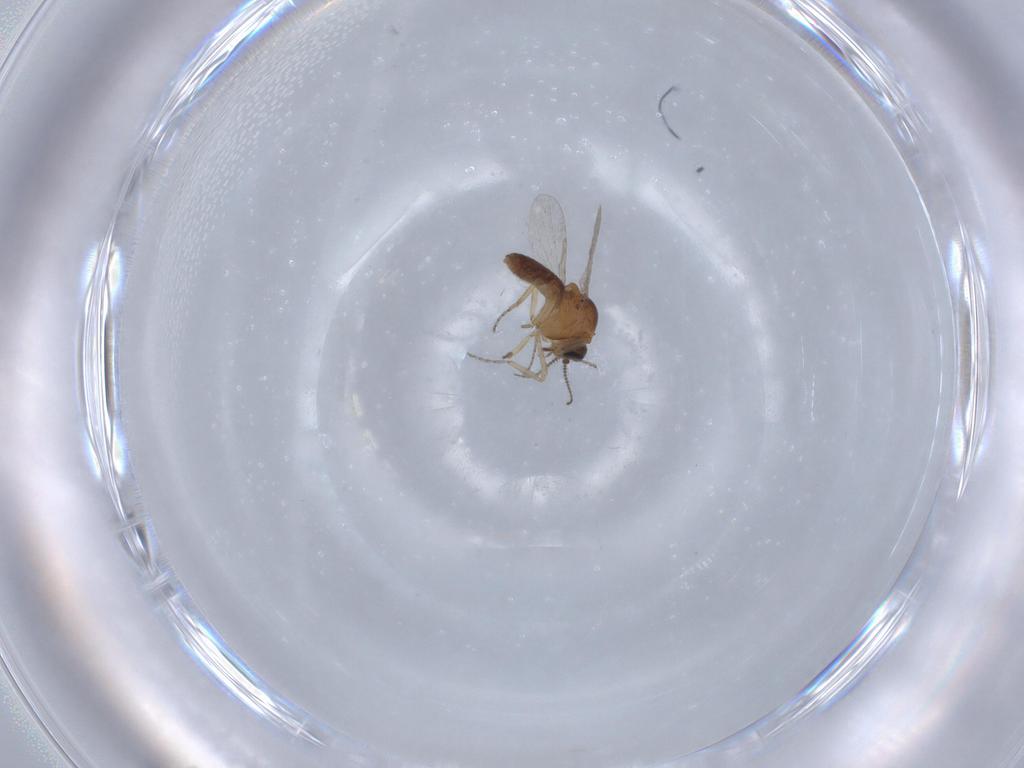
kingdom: Animalia
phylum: Arthropoda
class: Insecta
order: Diptera
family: Ceratopogonidae
